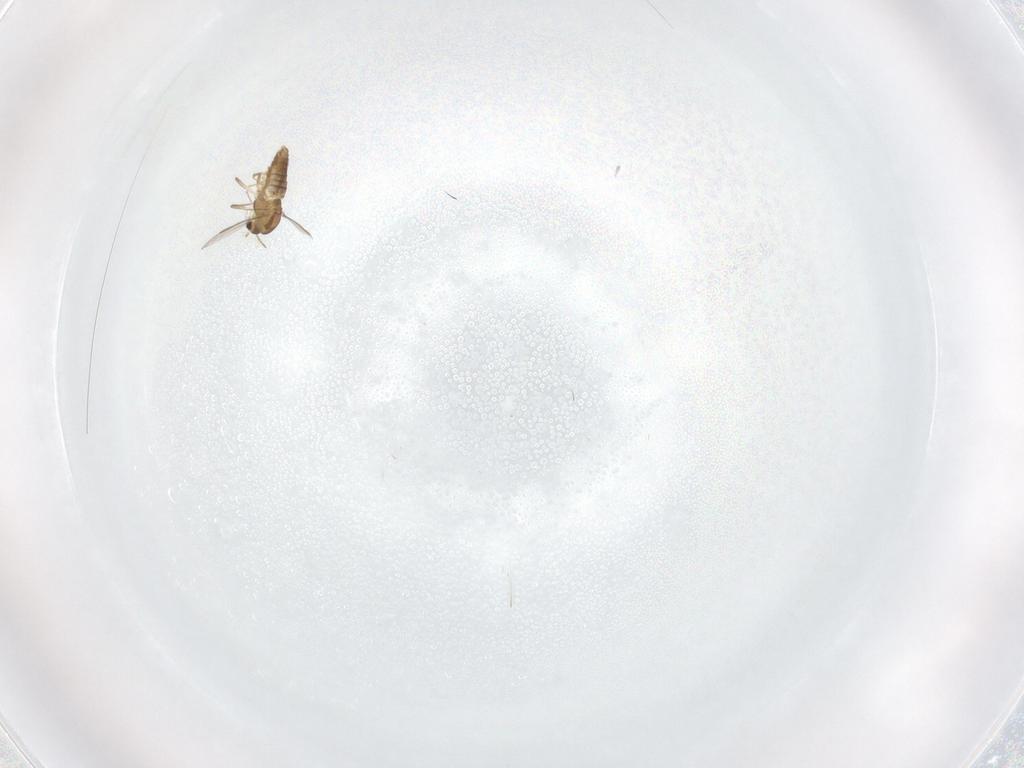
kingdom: Animalia
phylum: Arthropoda
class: Insecta
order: Diptera
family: Chironomidae
